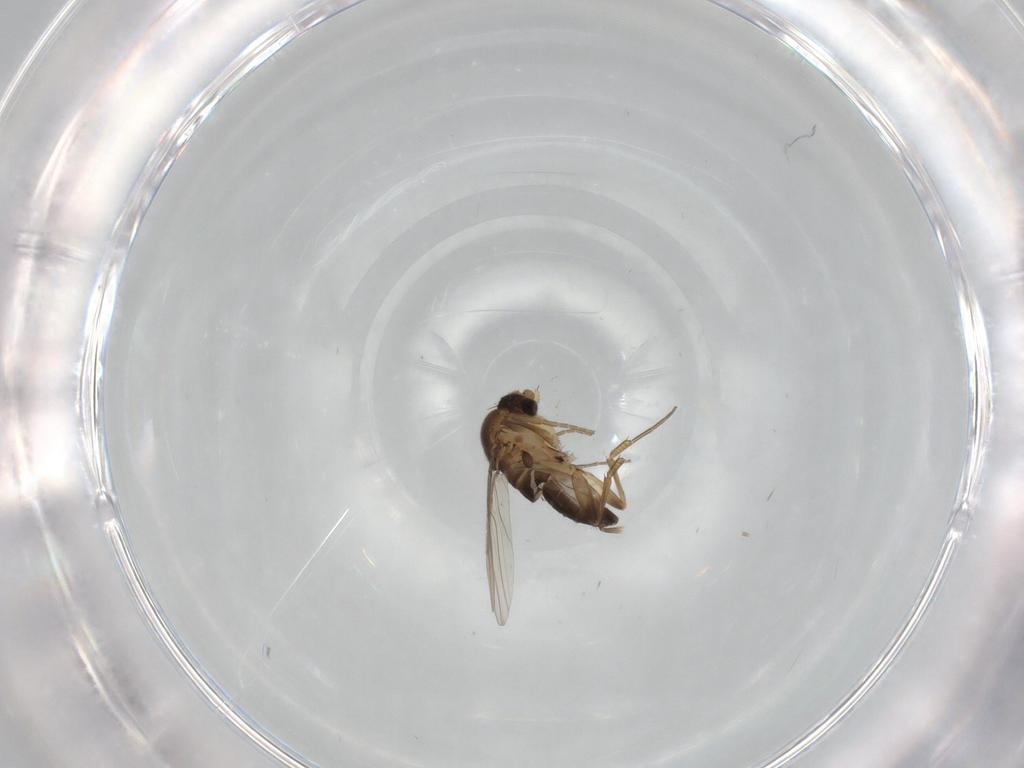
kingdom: Animalia
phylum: Arthropoda
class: Insecta
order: Diptera
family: Phoridae
